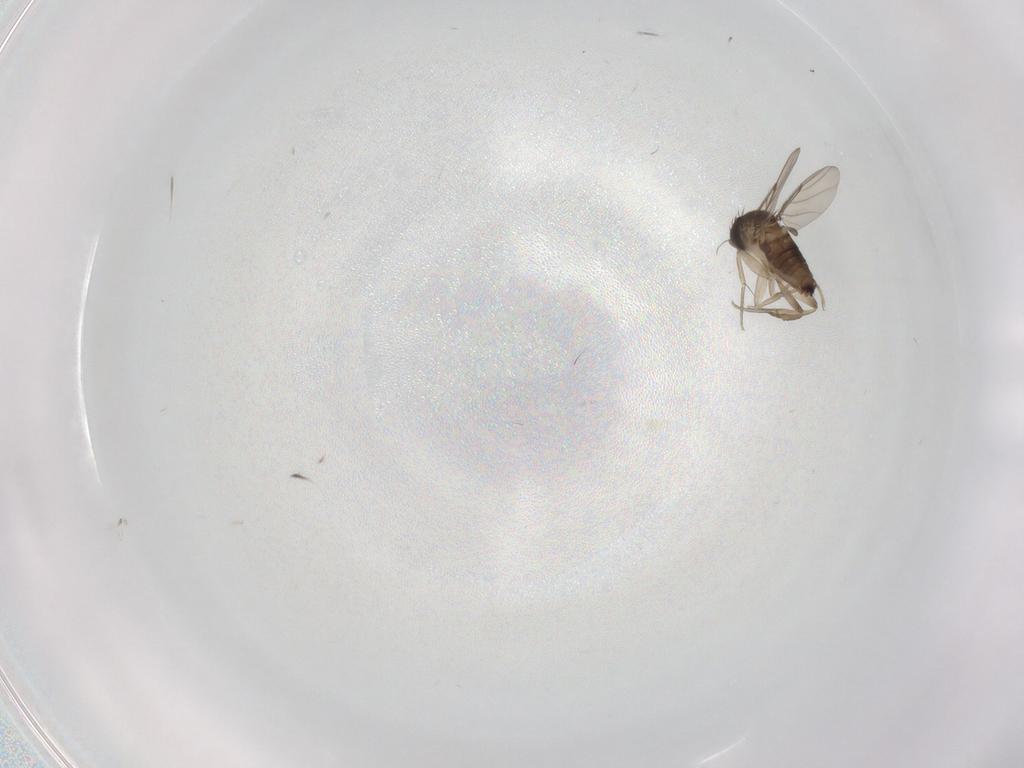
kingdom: Animalia
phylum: Arthropoda
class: Insecta
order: Diptera
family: Phoridae
